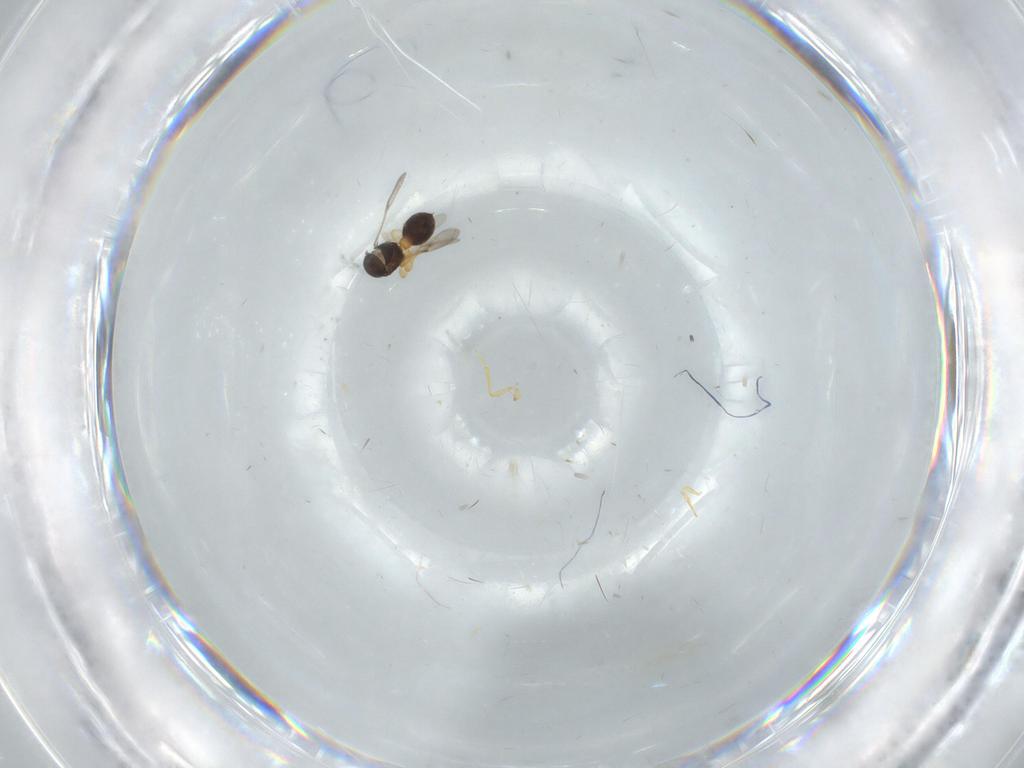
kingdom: Animalia
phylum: Arthropoda
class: Insecta
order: Hymenoptera
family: Scelionidae
